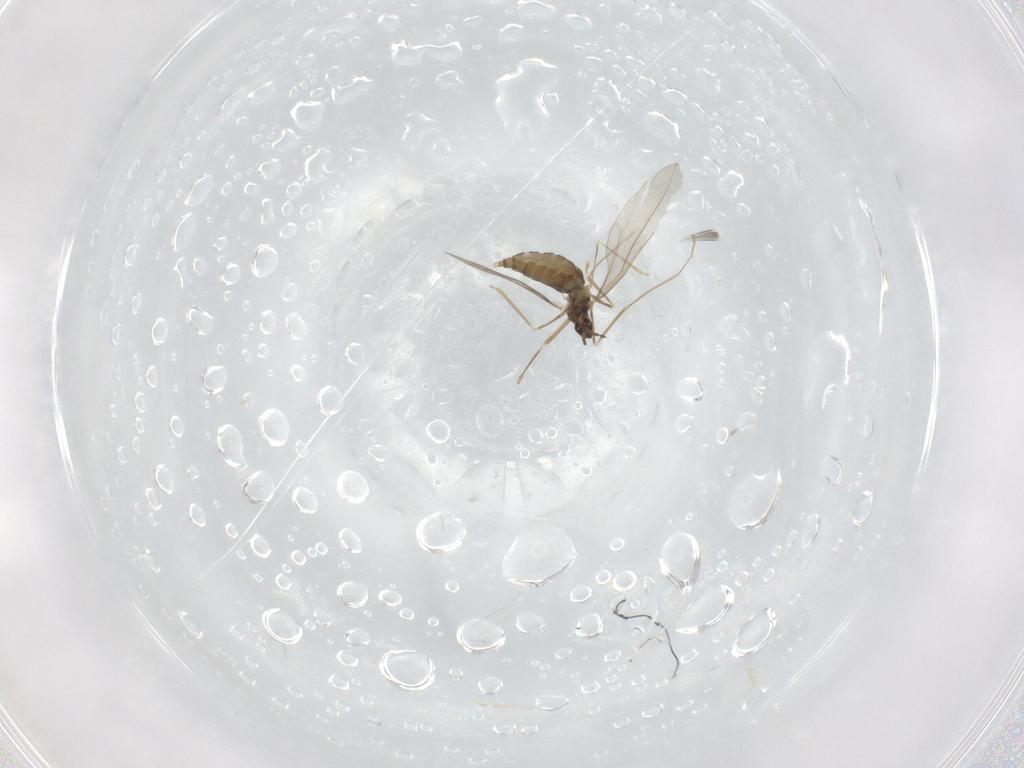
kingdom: Animalia
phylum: Arthropoda
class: Insecta
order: Diptera
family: Cecidomyiidae
